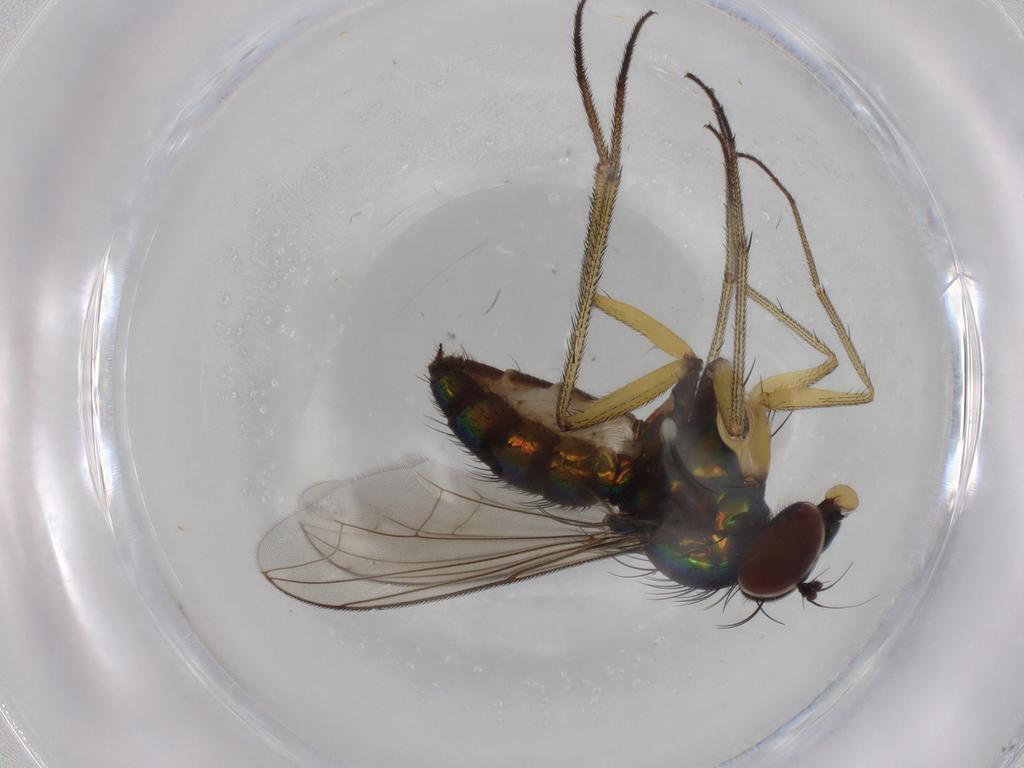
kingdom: Animalia
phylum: Arthropoda
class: Insecta
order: Diptera
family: Dolichopodidae
